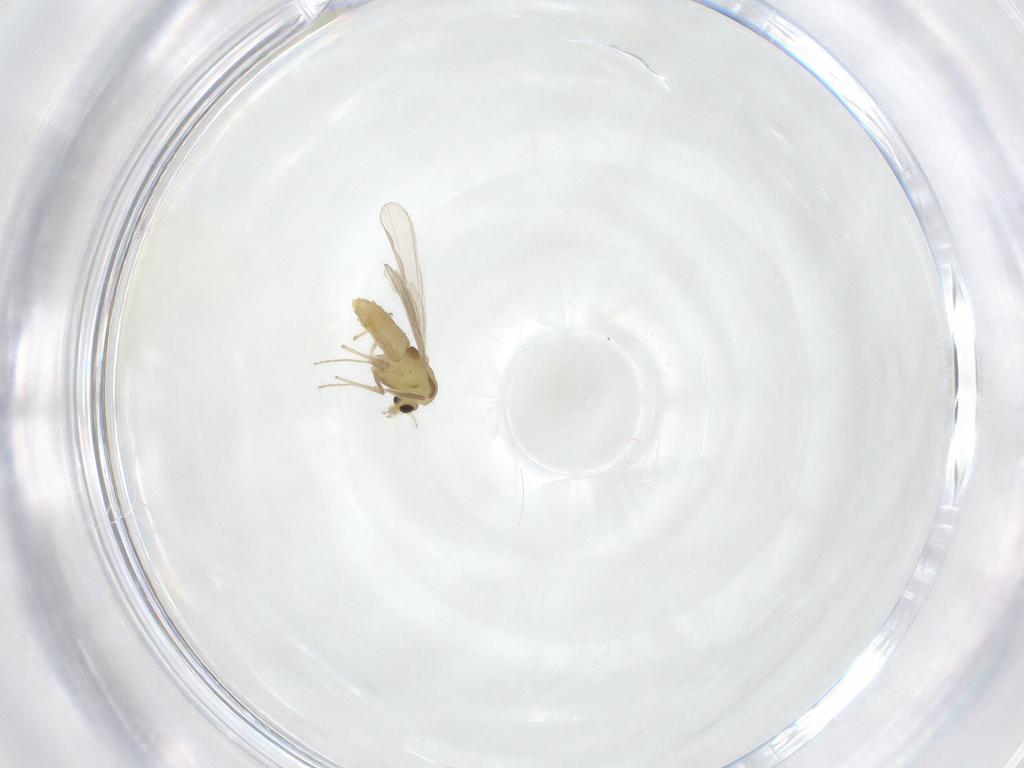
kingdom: Animalia
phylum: Arthropoda
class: Insecta
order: Diptera
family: Chironomidae
